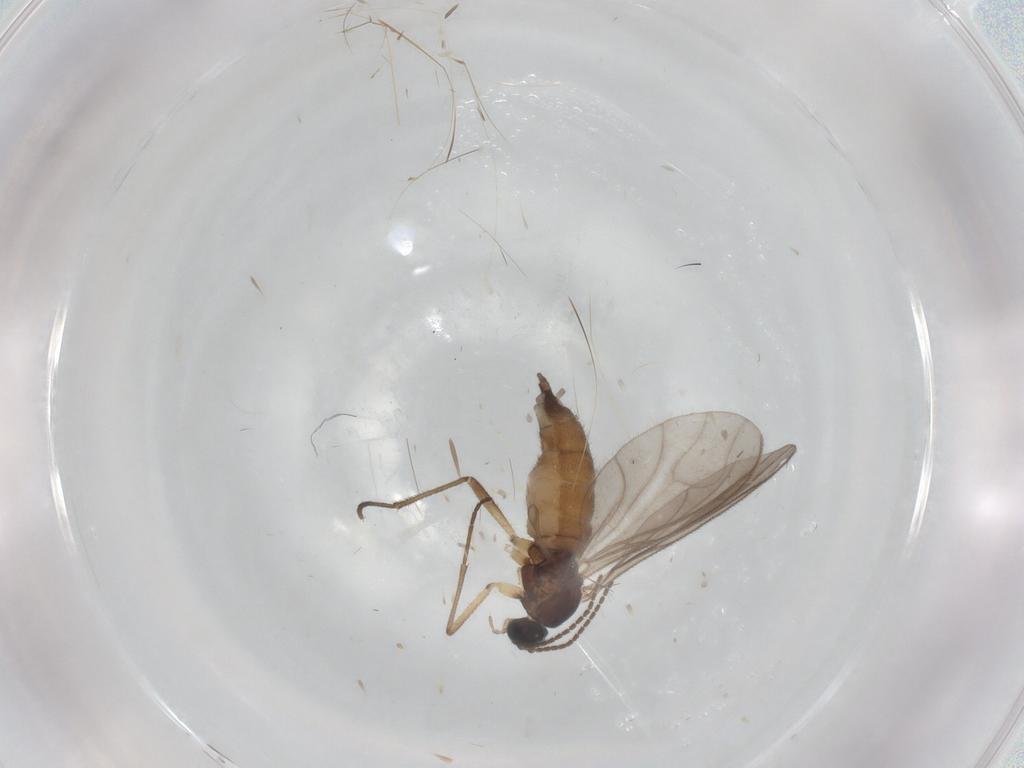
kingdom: Animalia
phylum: Arthropoda
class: Insecta
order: Diptera
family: Sciaridae
